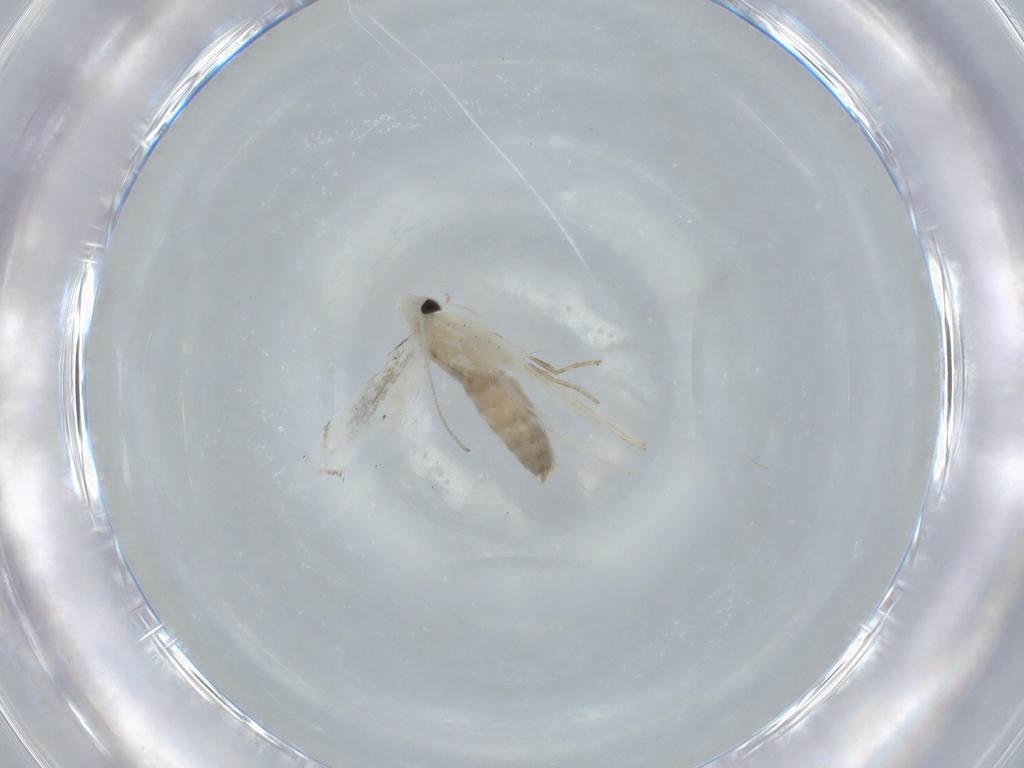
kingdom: Animalia
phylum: Arthropoda
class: Insecta
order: Lepidoptera
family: Gracillariidae
